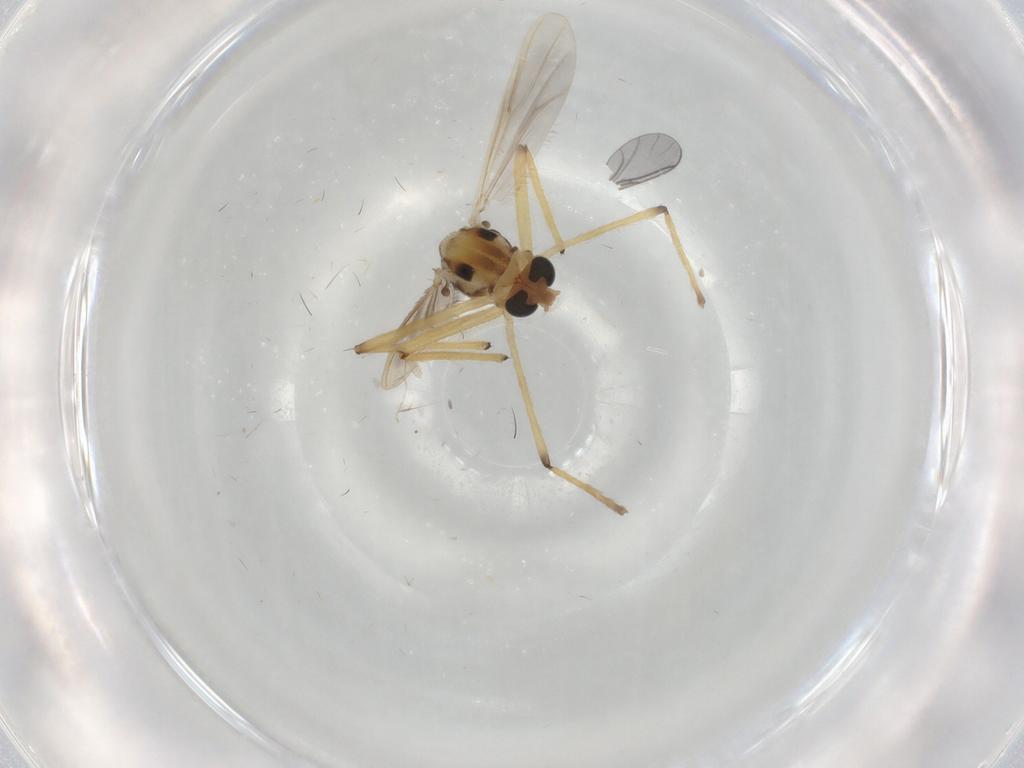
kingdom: Animalia
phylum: Arthropoda
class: Insecta
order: Diptera
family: Chironomidae
